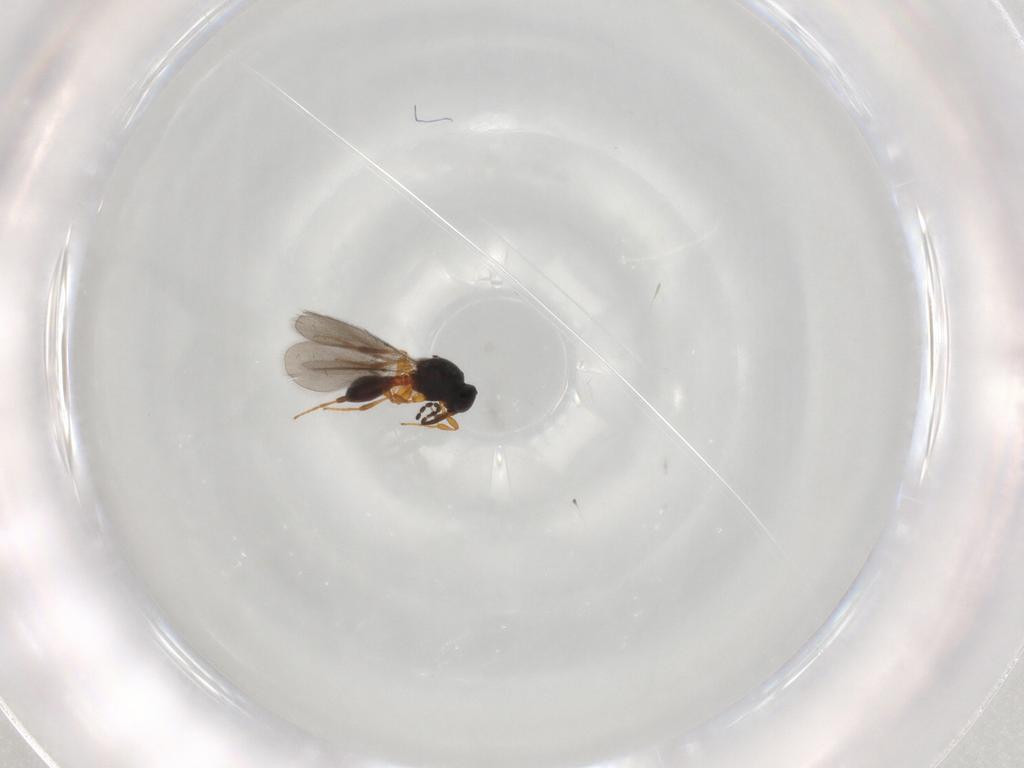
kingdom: Animalia
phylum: Arthropoda
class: Insecta
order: Hymenoptera
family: Platygastridae
